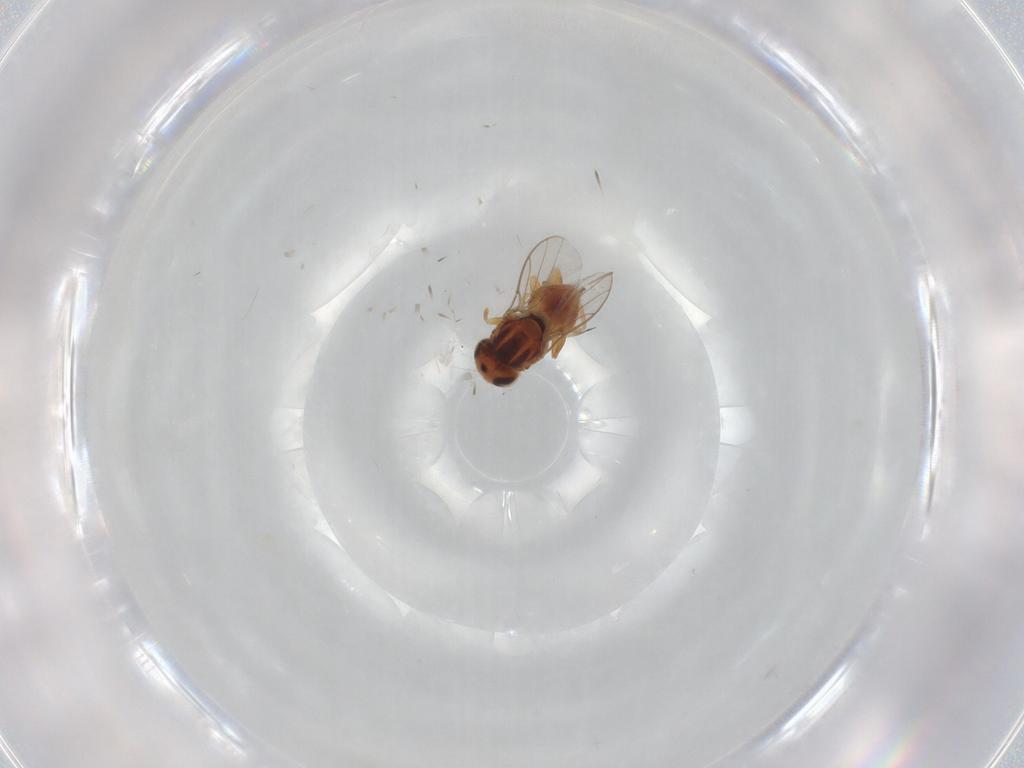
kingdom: Animalia
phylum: Arthropoda
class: Insecta
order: Diptera
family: Chloropidae
